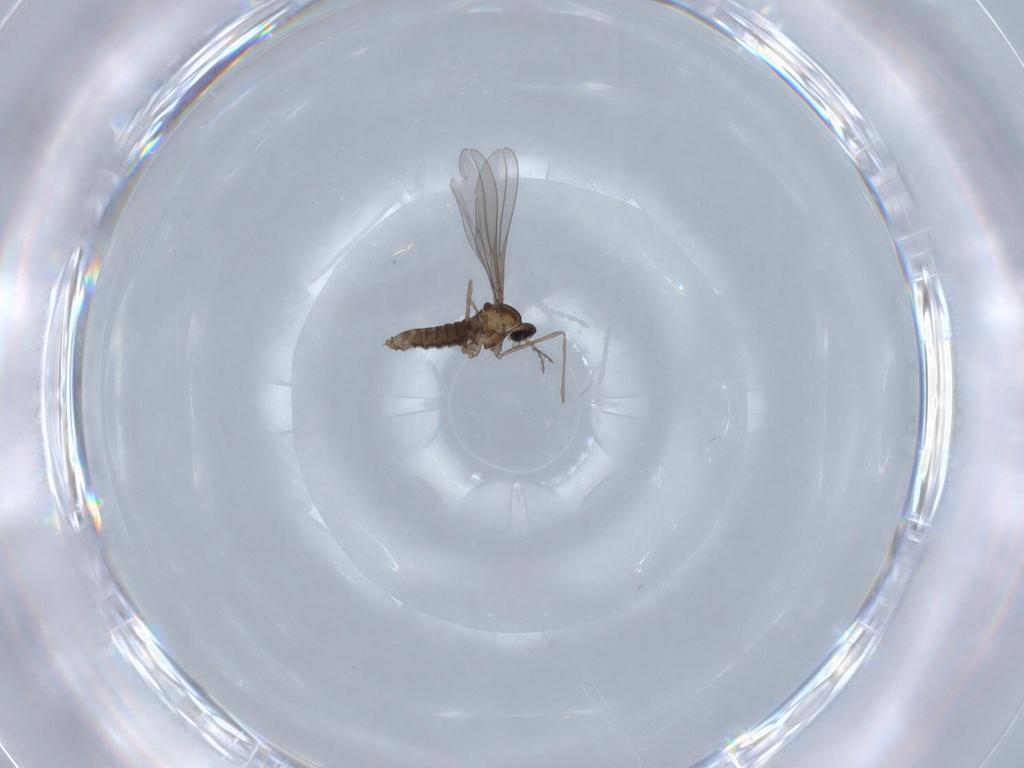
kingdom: Animalia
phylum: Arthropoda
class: Insecta
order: Diptera
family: Cecidomyiidae
